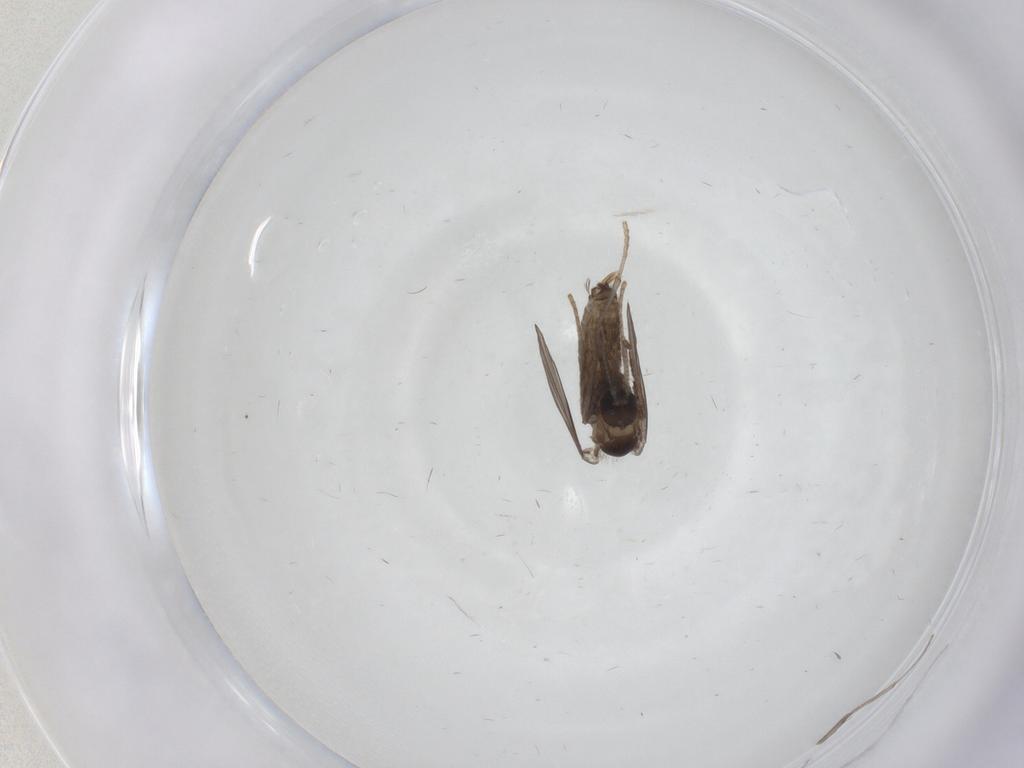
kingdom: Animalia
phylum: Arthropoda
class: Insecta
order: Diptera
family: Psychodidae
